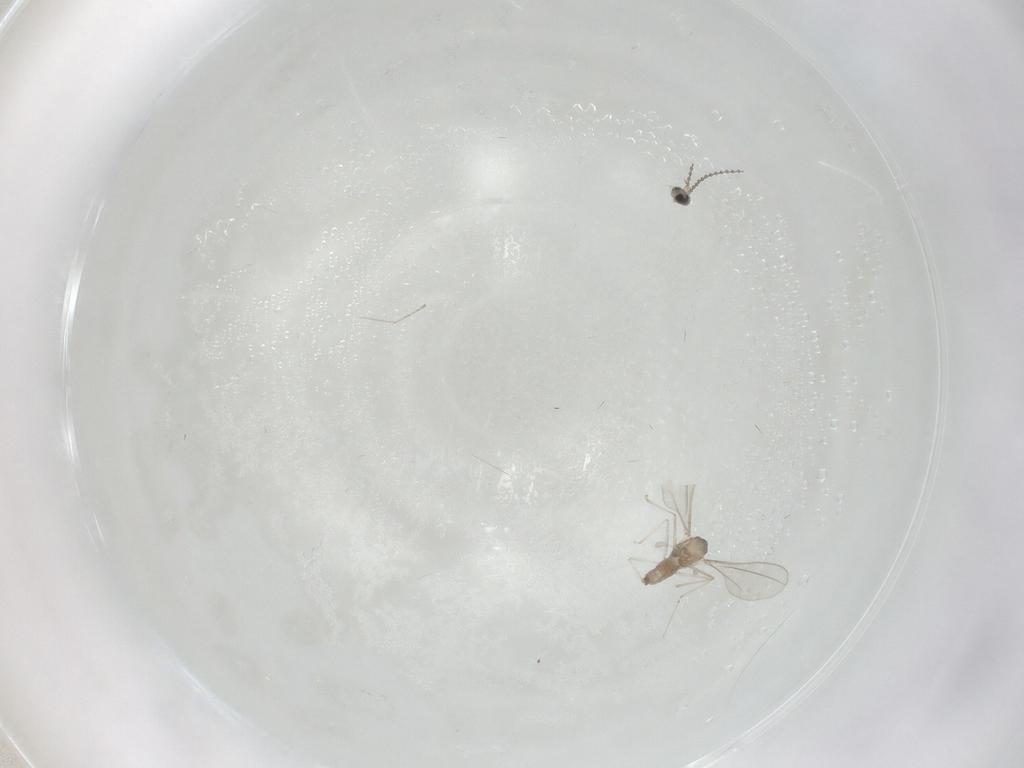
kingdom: Animalia
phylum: Arthropoda
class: Insecta
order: Diptera
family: Cecidomyiidae
